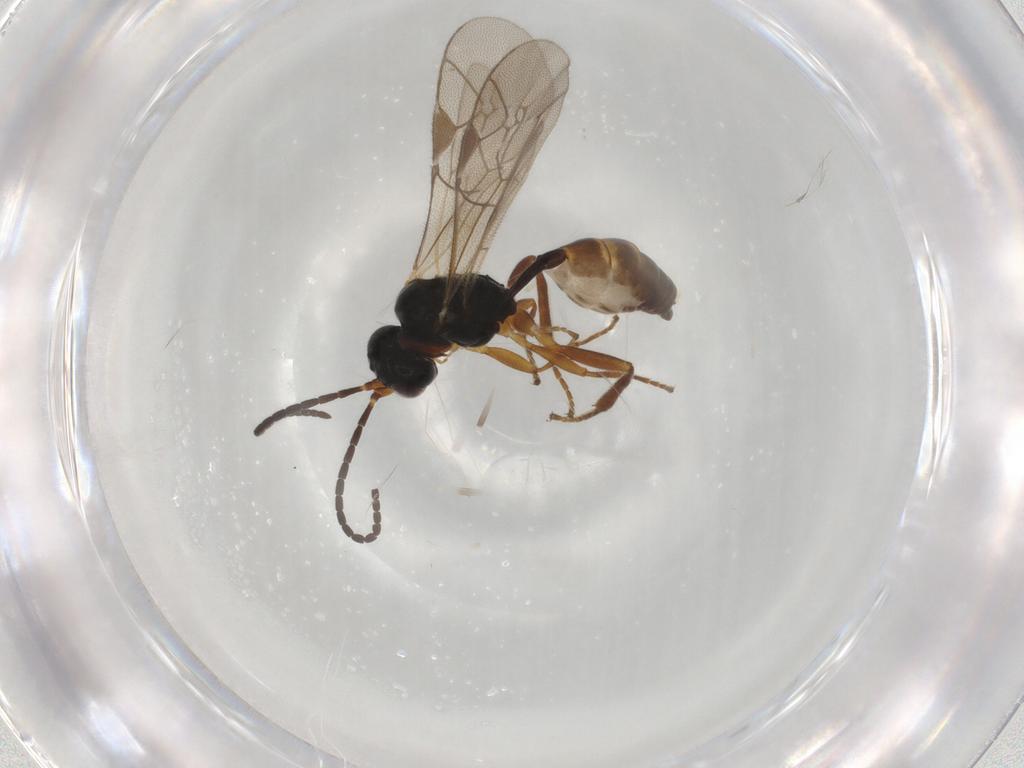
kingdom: Animalia
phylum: Arthropoda
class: Insecta
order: Hymenoptera
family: Ichneumonidae
